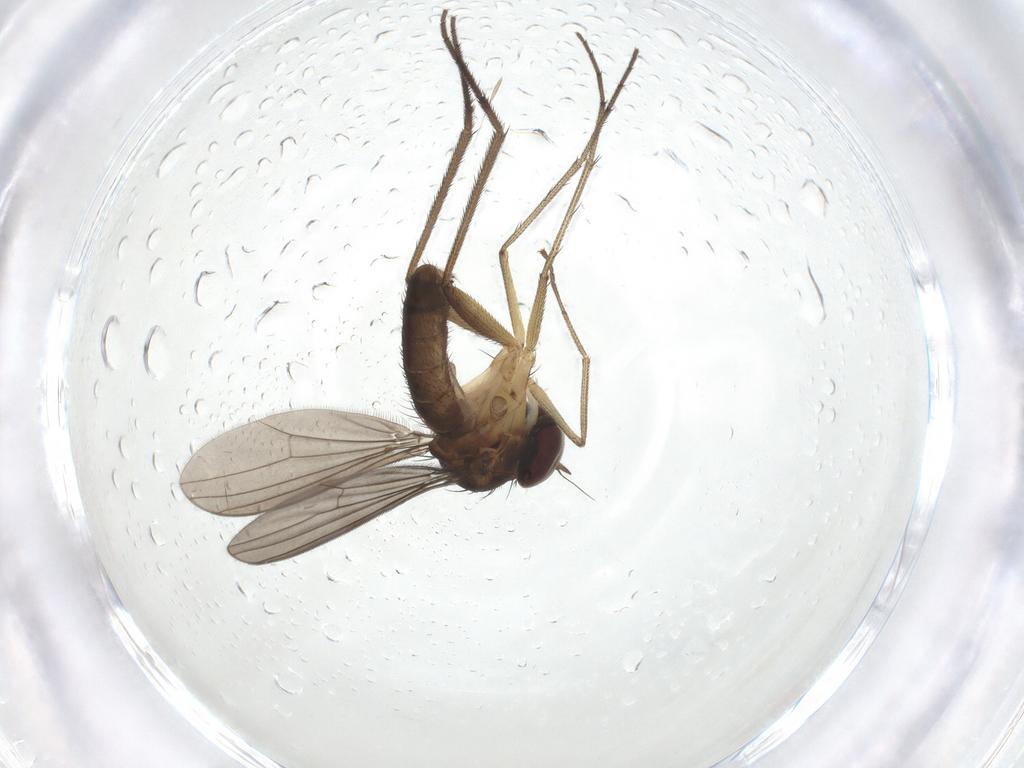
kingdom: Animalia
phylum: Arthropoda
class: Insecta
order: Diptera
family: Dolichopodidae
